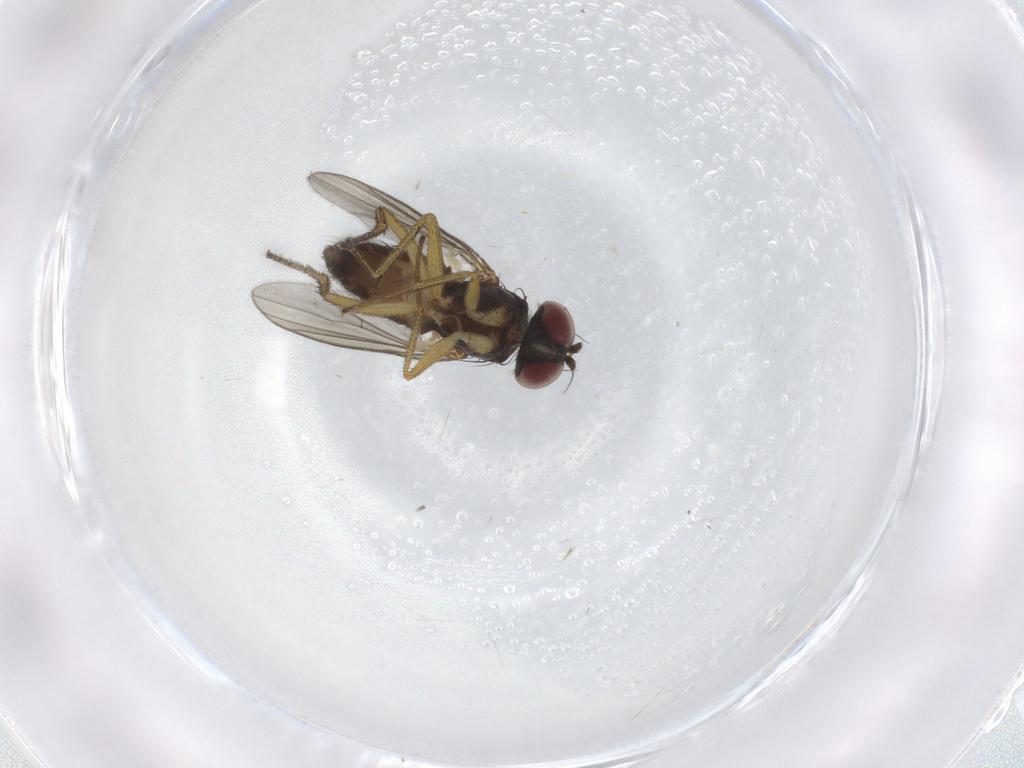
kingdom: Animalia
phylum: Arthropoda
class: Insecta
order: Diptera
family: Dolichopodidae
